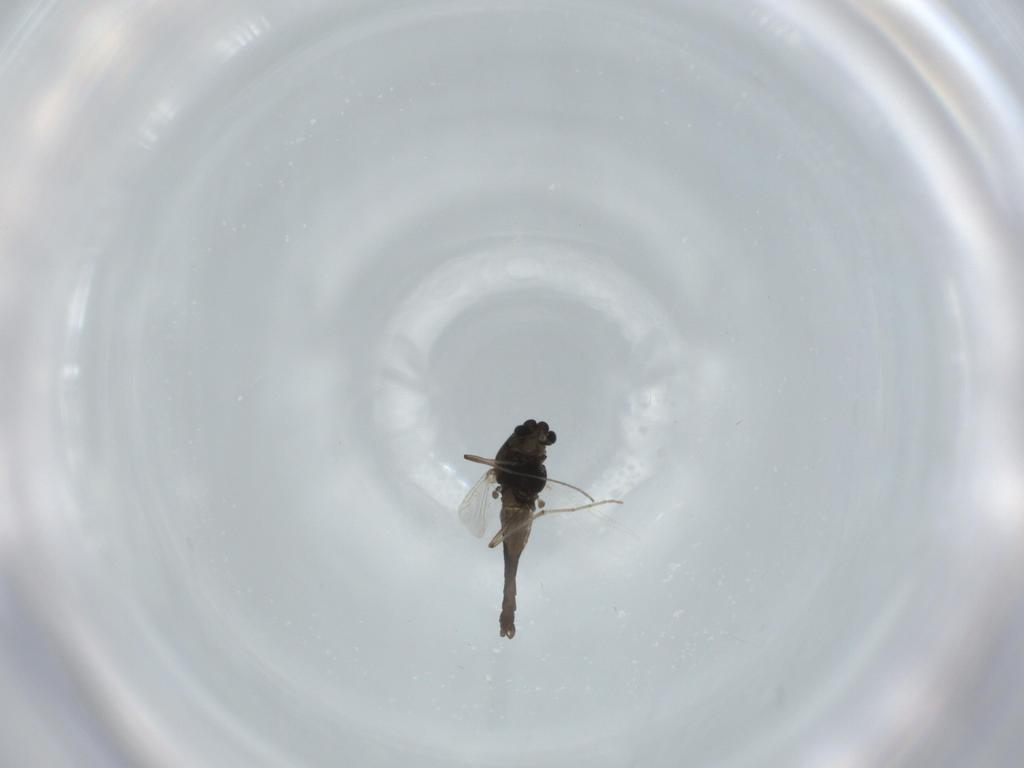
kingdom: Animalia
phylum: Arthropoda
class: Insecta
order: Diptera
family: Chironomidae
